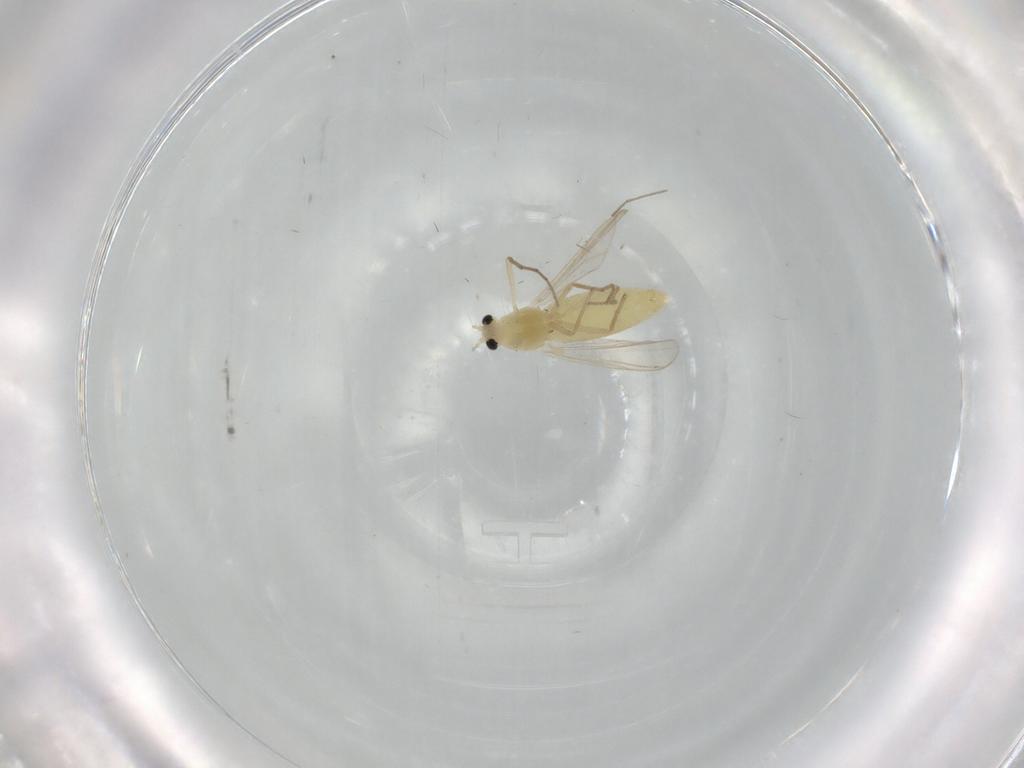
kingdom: Animalia
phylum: Arthropoda
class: Insecta
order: Diptera
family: Chironomidae
